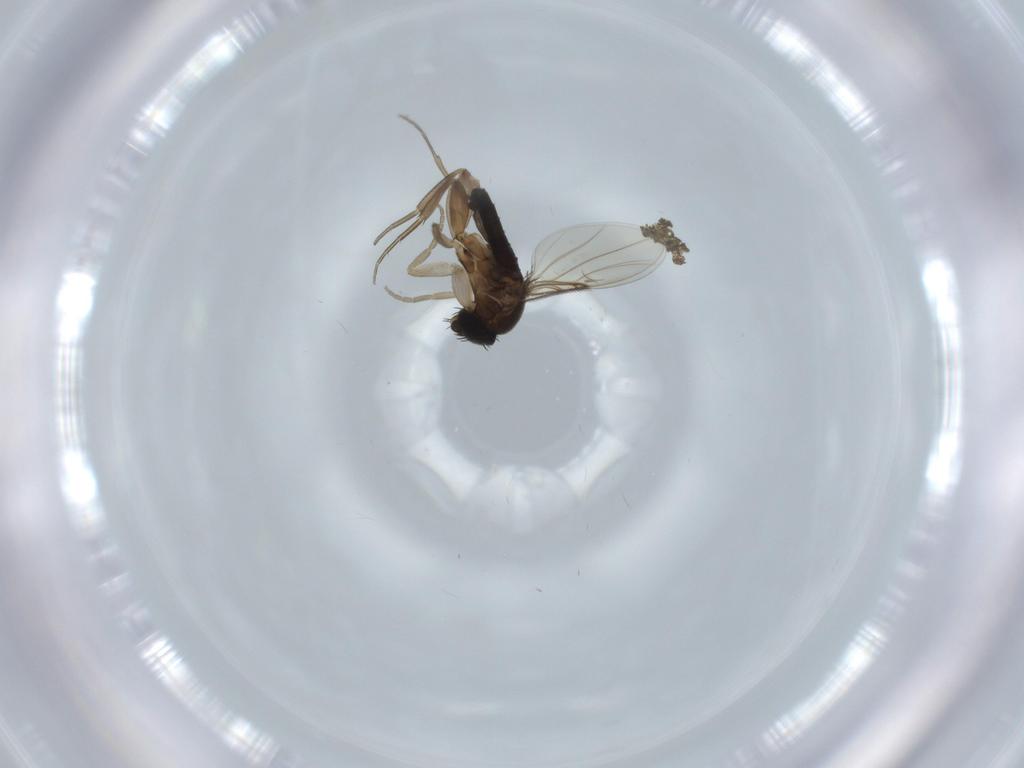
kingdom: Animalia
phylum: Arthropoda
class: Insecta
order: Diptera
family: Phoridae
